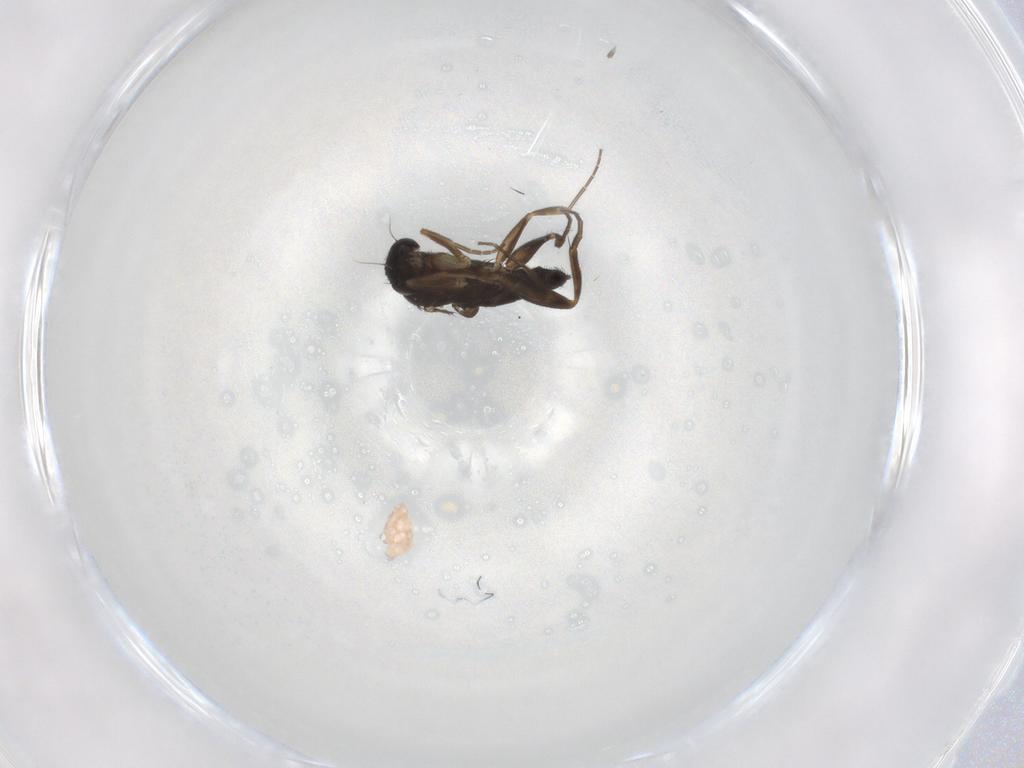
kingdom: Animalia
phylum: Arthropoda
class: Insecta
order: Diptera
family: Phoridae
